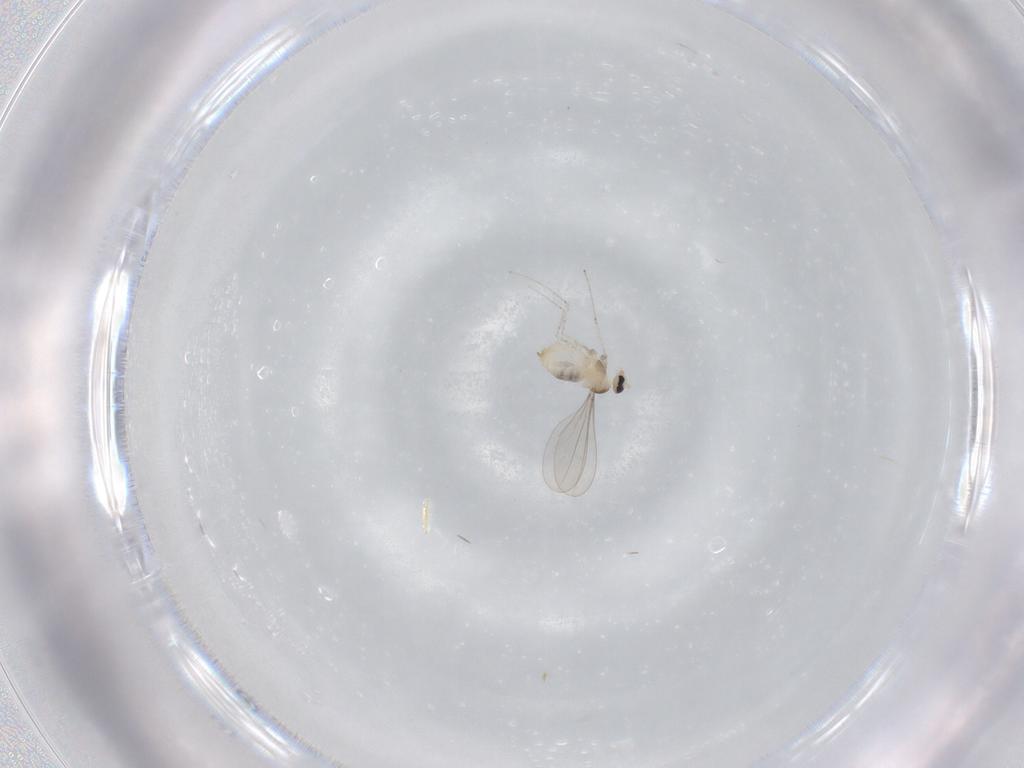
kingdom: Animalia
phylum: Arthropoda
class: Insecta
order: Diptera
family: Cecidomyiidae
